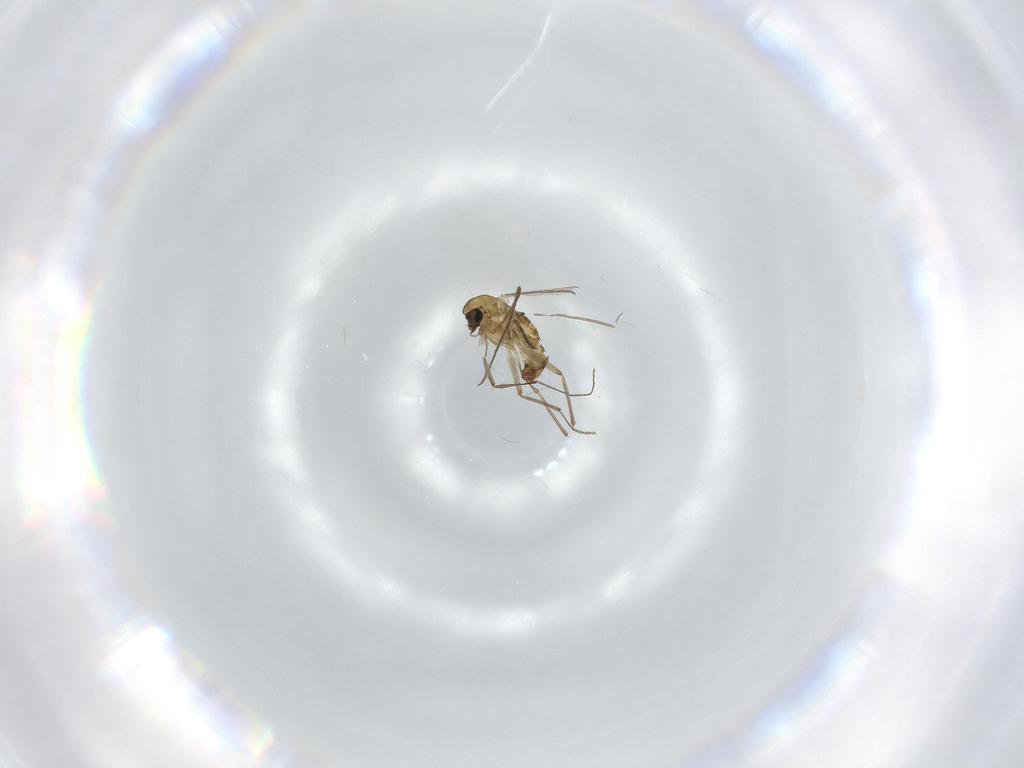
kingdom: Animalia
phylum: Arthropoda
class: Insecta
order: Diptera
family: Chironomidae
